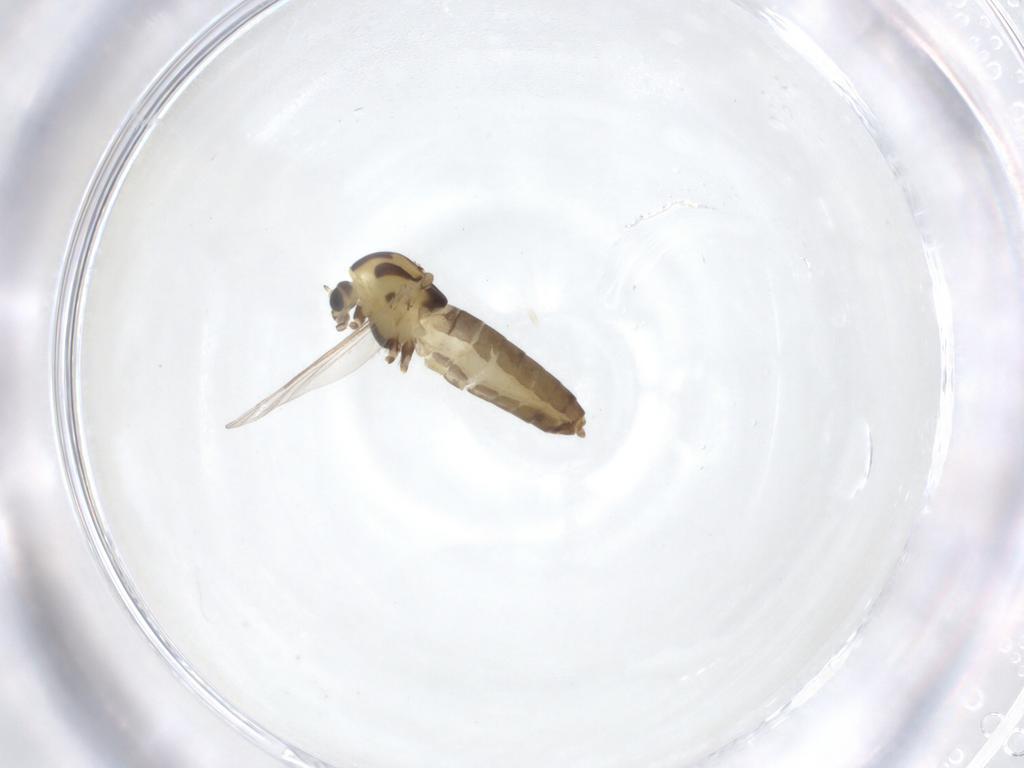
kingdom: Animalia
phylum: Arthropoda
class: Insecta
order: Diptera
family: Chironomidae
